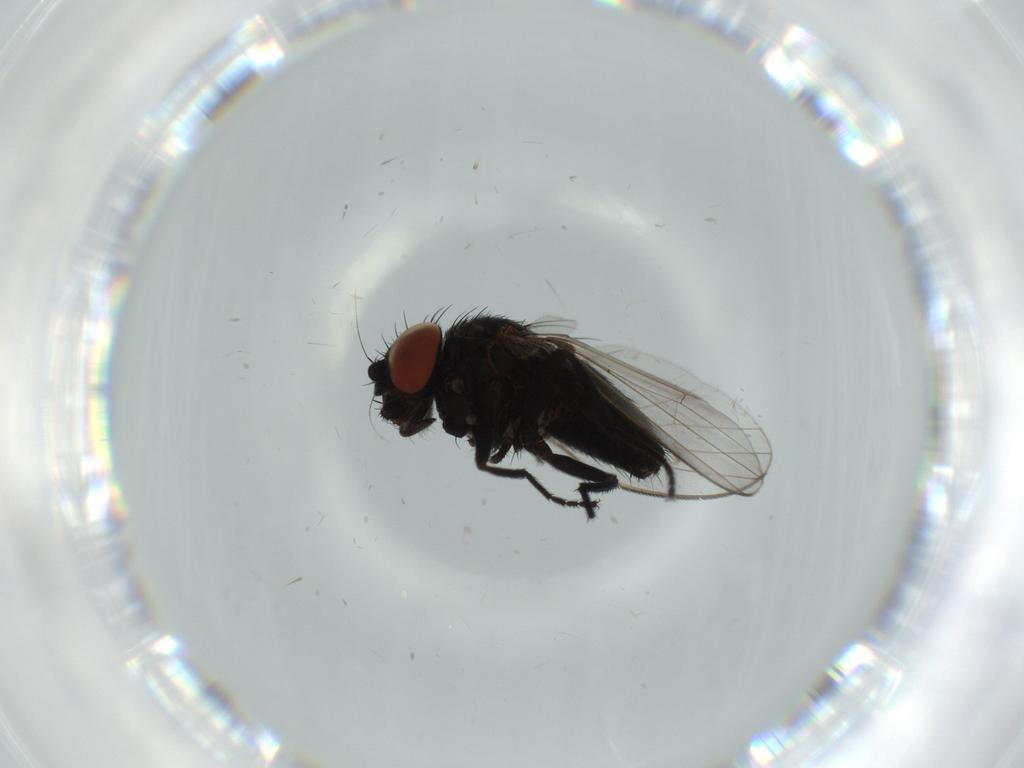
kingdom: Animalia
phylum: Arthropoda
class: Insecta
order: Diptera
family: Milichiidae
